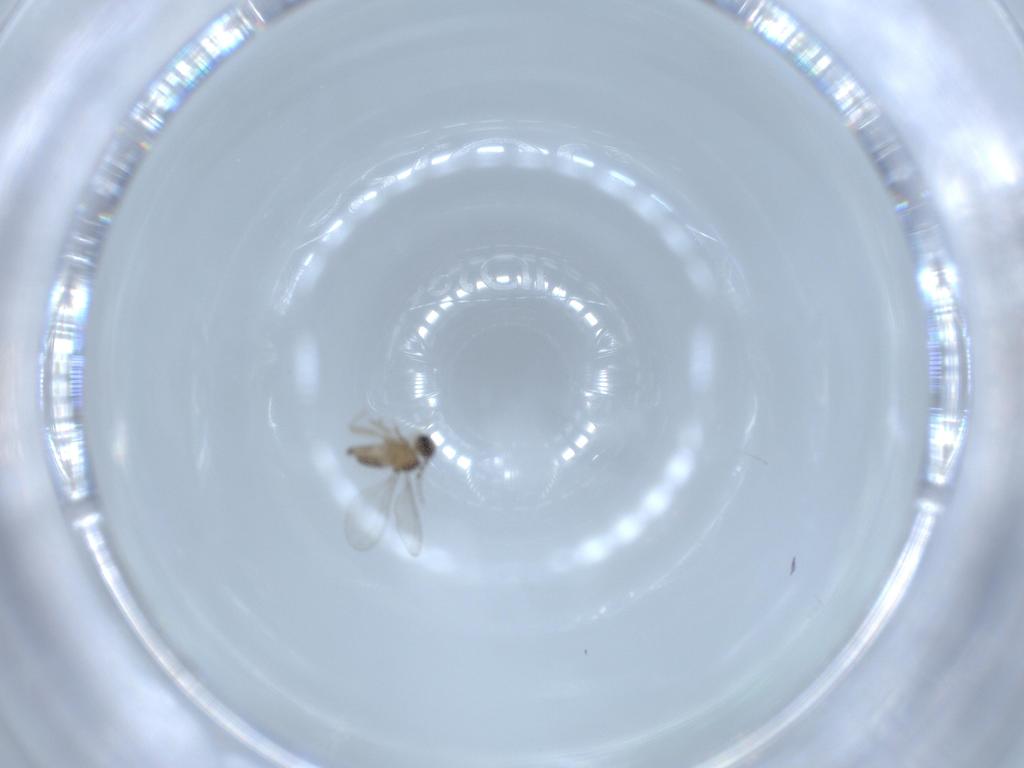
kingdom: Animalia
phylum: Arthropoda
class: Insecta
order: Diptera
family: Cecidomyiidae
